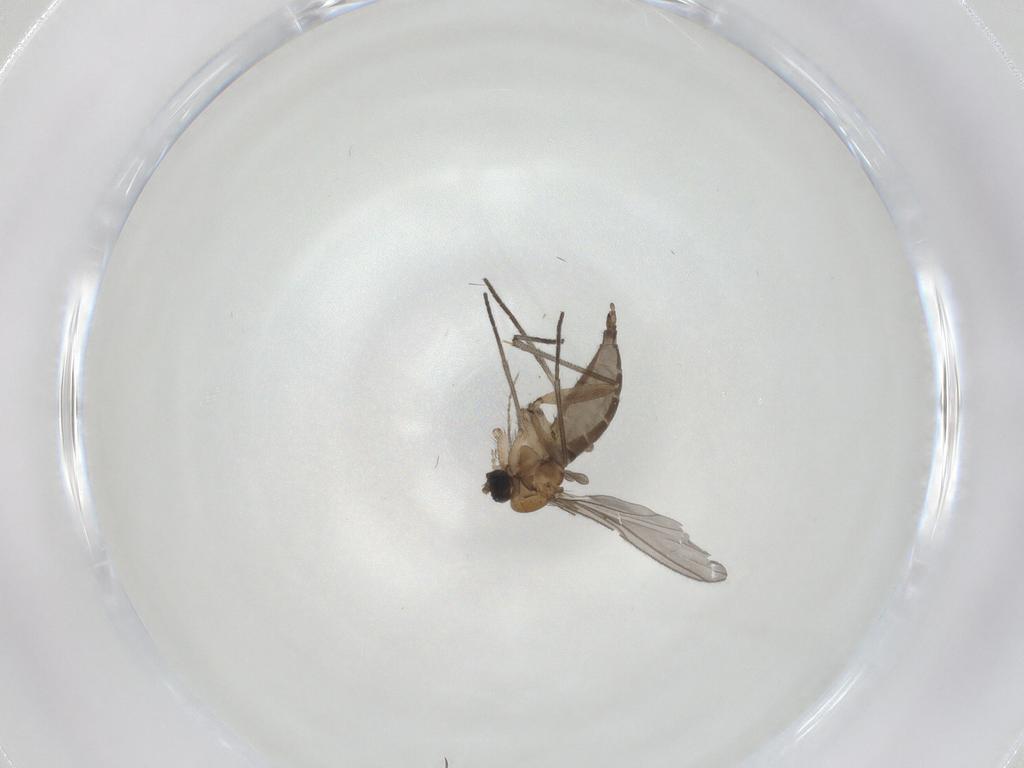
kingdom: Animalia
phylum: Arthropoda
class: Insecta
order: Diptera
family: Sciaridae
